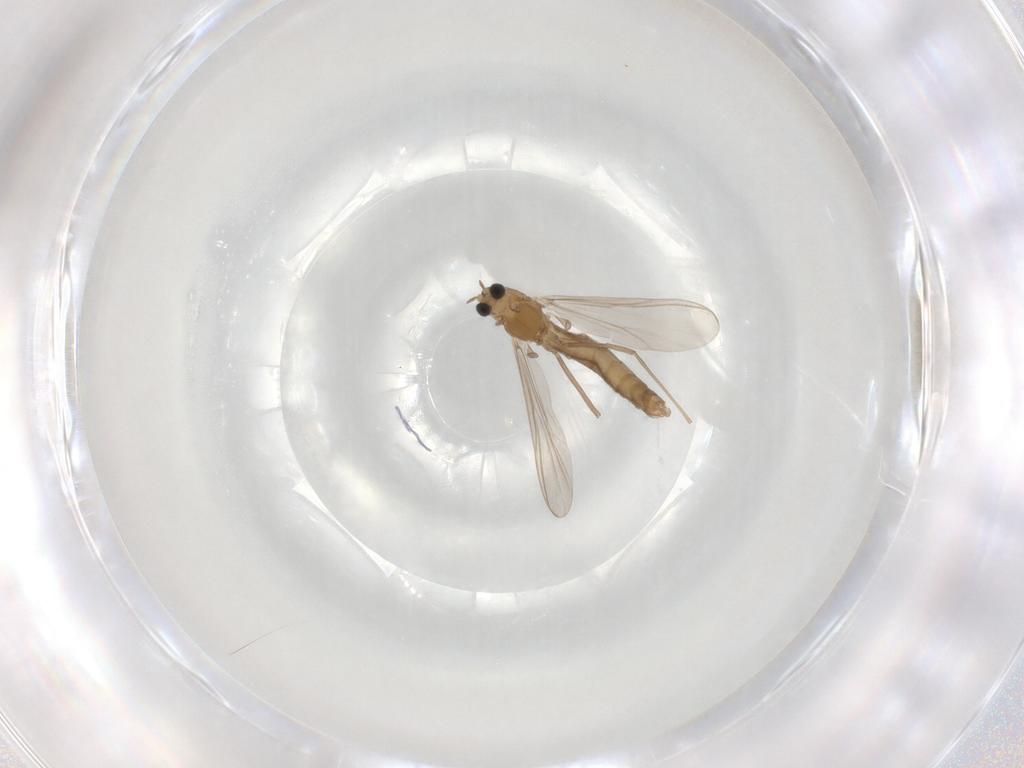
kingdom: Animalia
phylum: Arthropoda
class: Insecta
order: Diptera
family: Chironomidae
